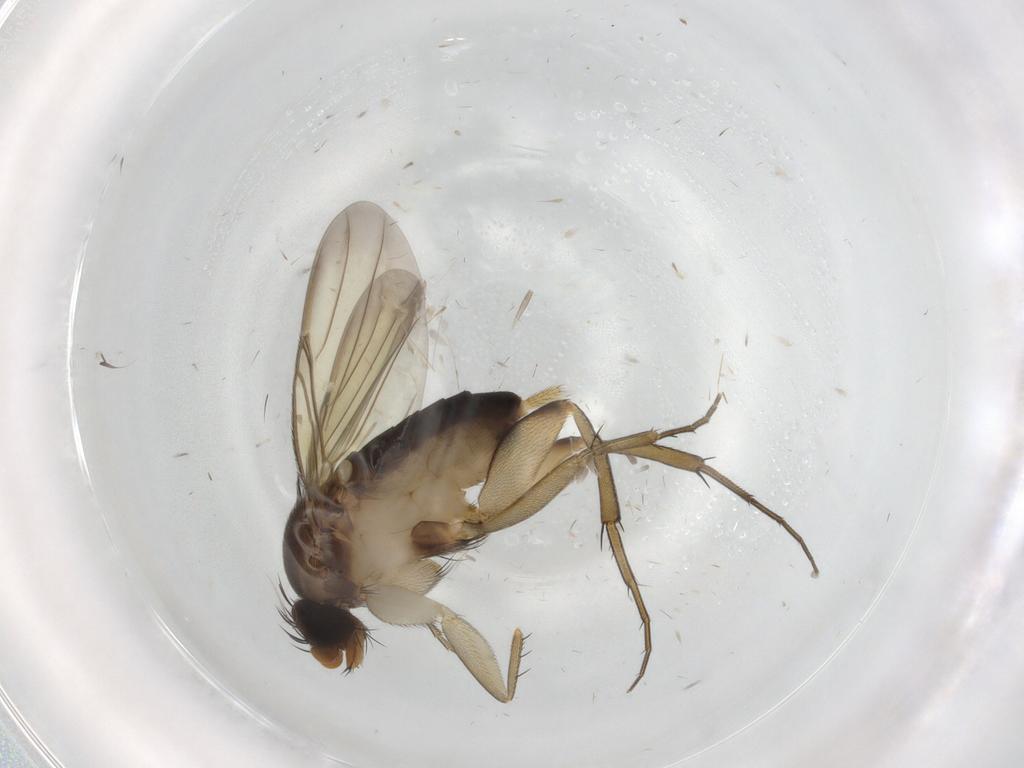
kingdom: Animalia
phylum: Arthropoda
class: Insecta
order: Diptera
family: Phoridae
